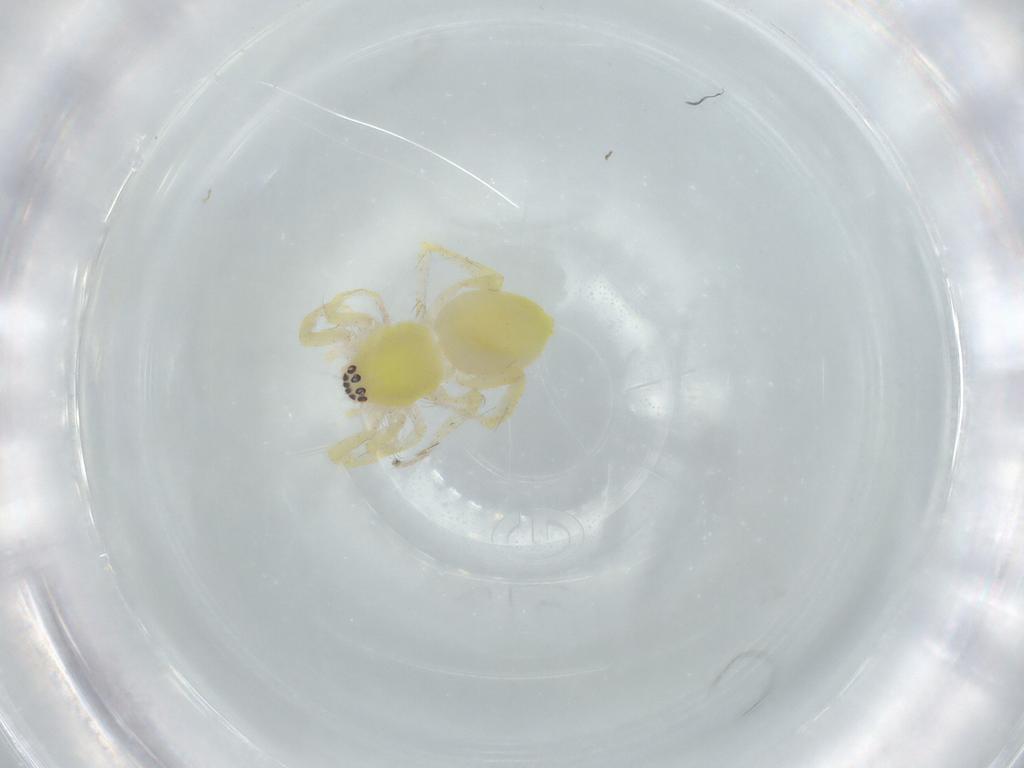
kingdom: Animalia
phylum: Arthropoda
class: Arachnida
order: Araneae
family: Anyphaenidae
